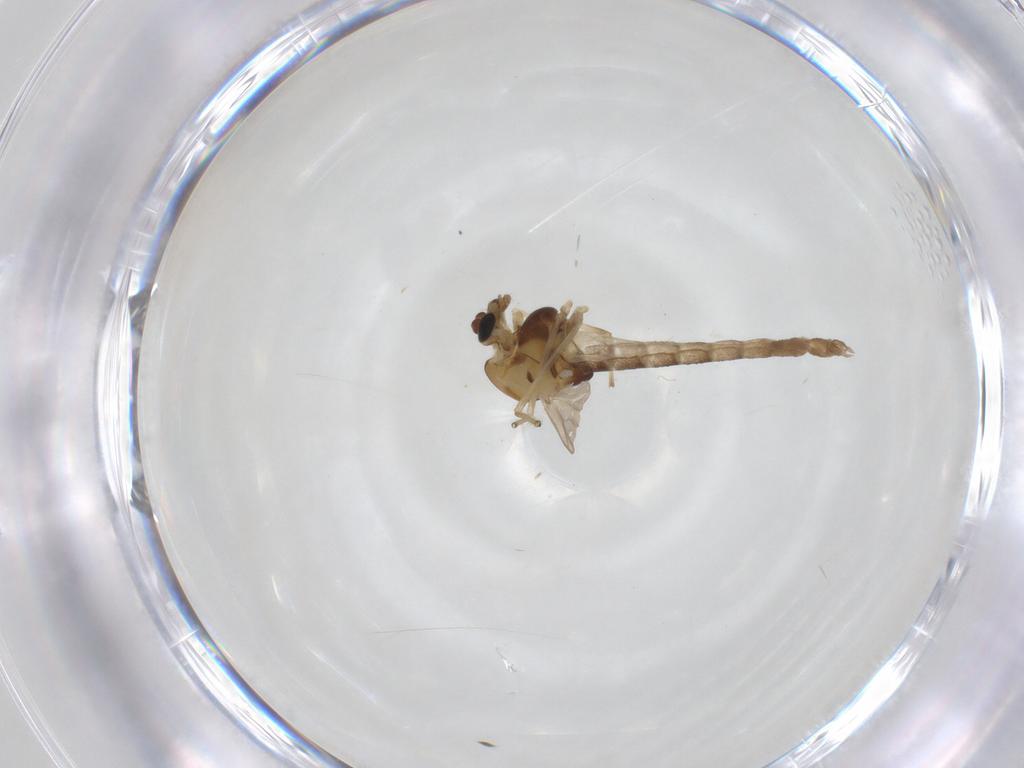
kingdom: Animalia
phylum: Arthropoda
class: Insecta
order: Diptera
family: Chironomidae
